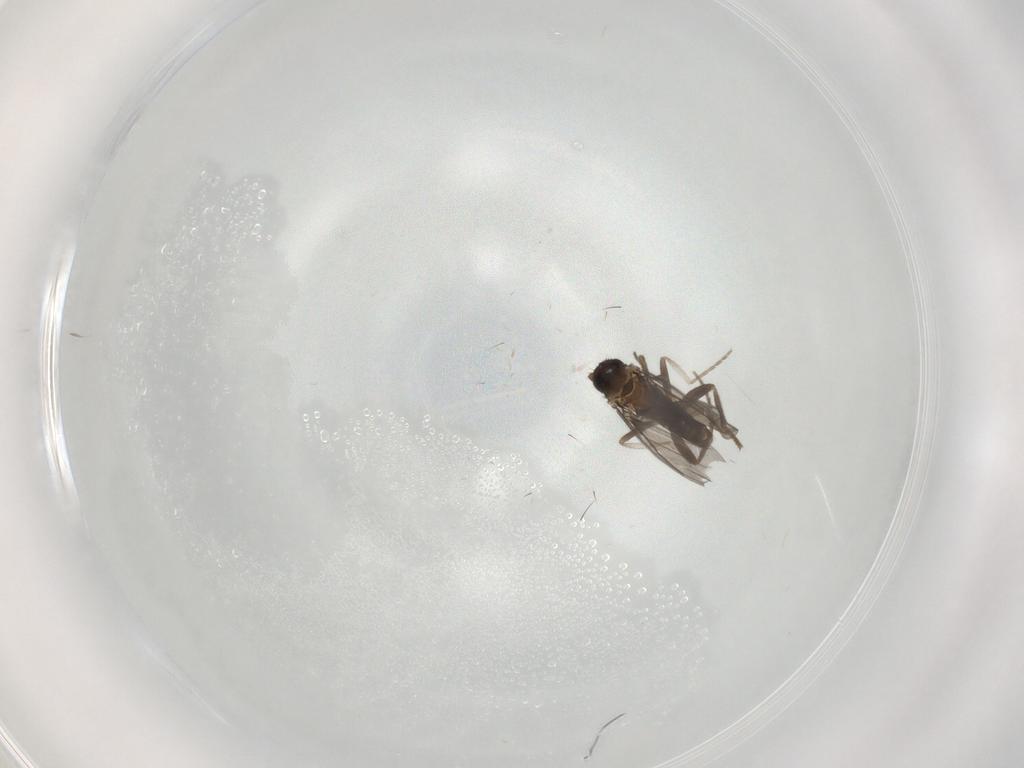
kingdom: Animalia
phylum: Arthropoda
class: Insecta
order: Diptera
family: Phoridae
